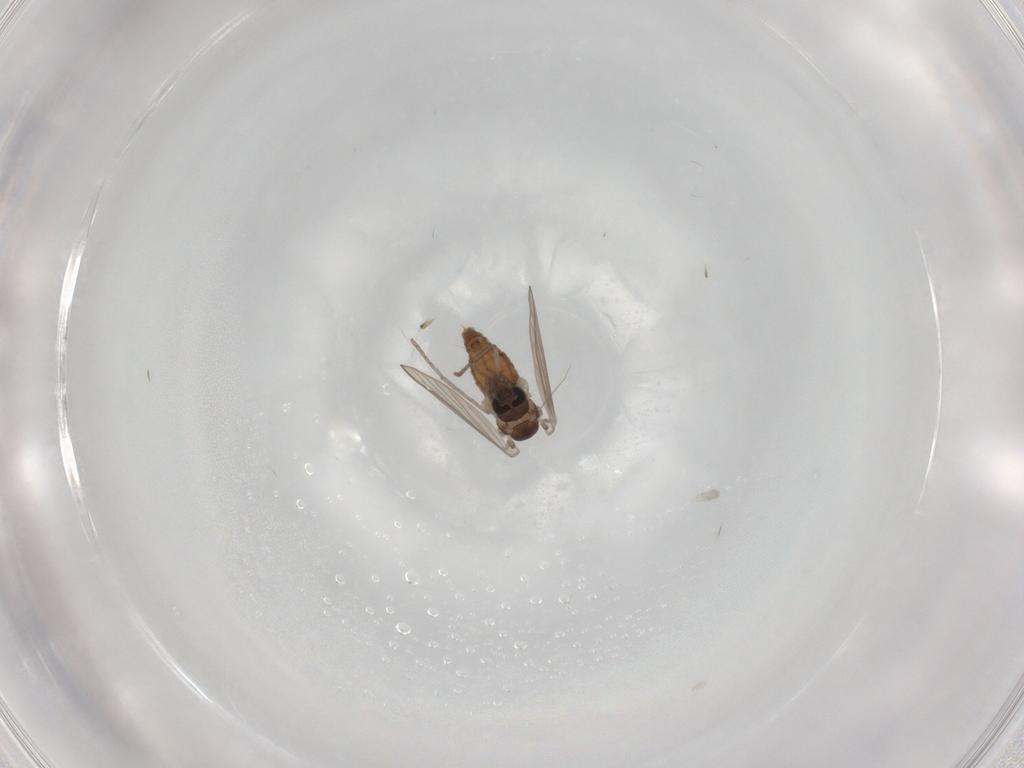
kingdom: Animalia
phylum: Arthropoda
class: Insecta
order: Diptera
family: Psychodidae
